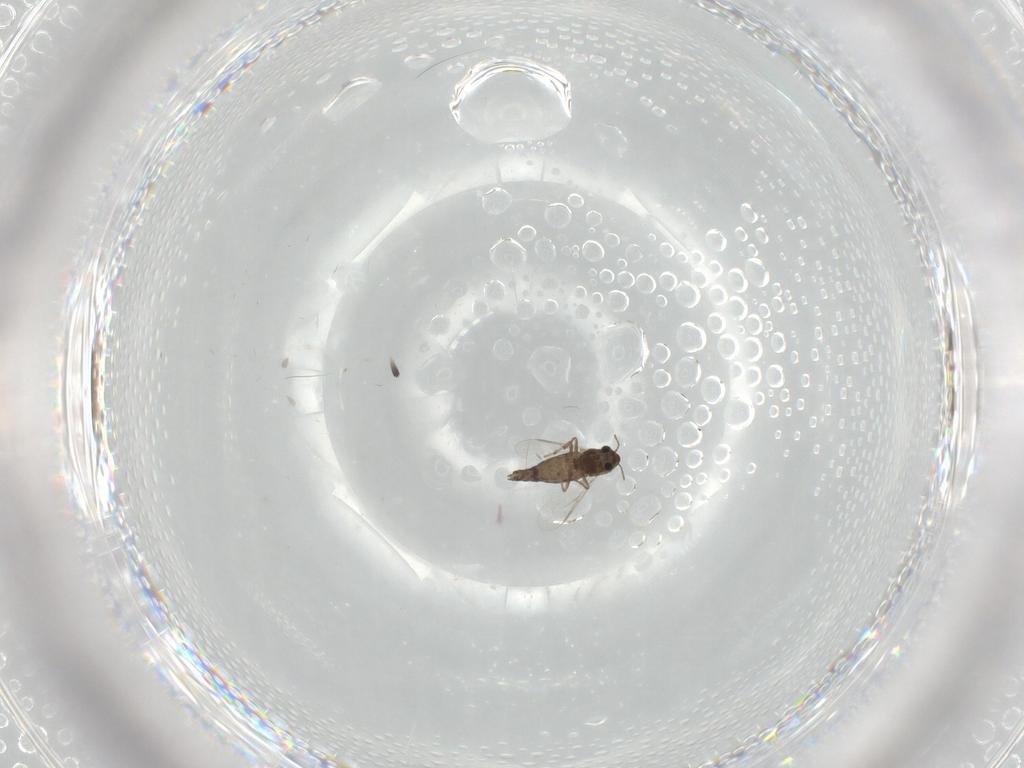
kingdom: Animalia
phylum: Arthropoda
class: Insecta
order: Diptera
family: Chironomidae
